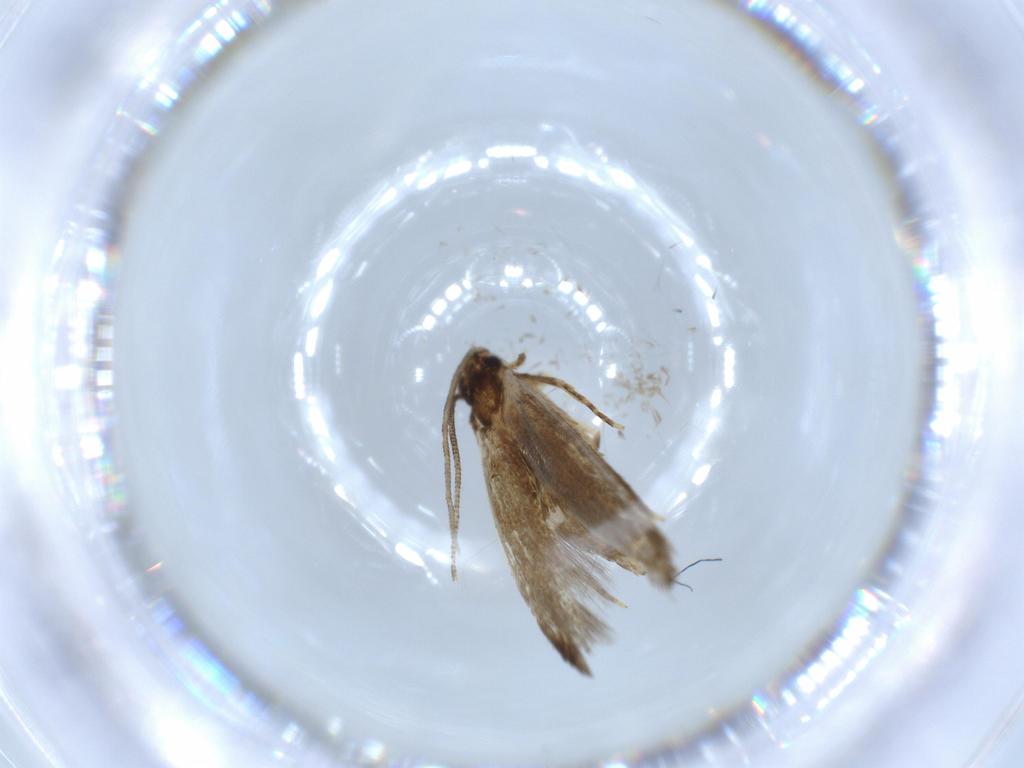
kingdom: Animalia
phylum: Arthropoda
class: Insecta
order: Lepidoptera
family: Tineidae
